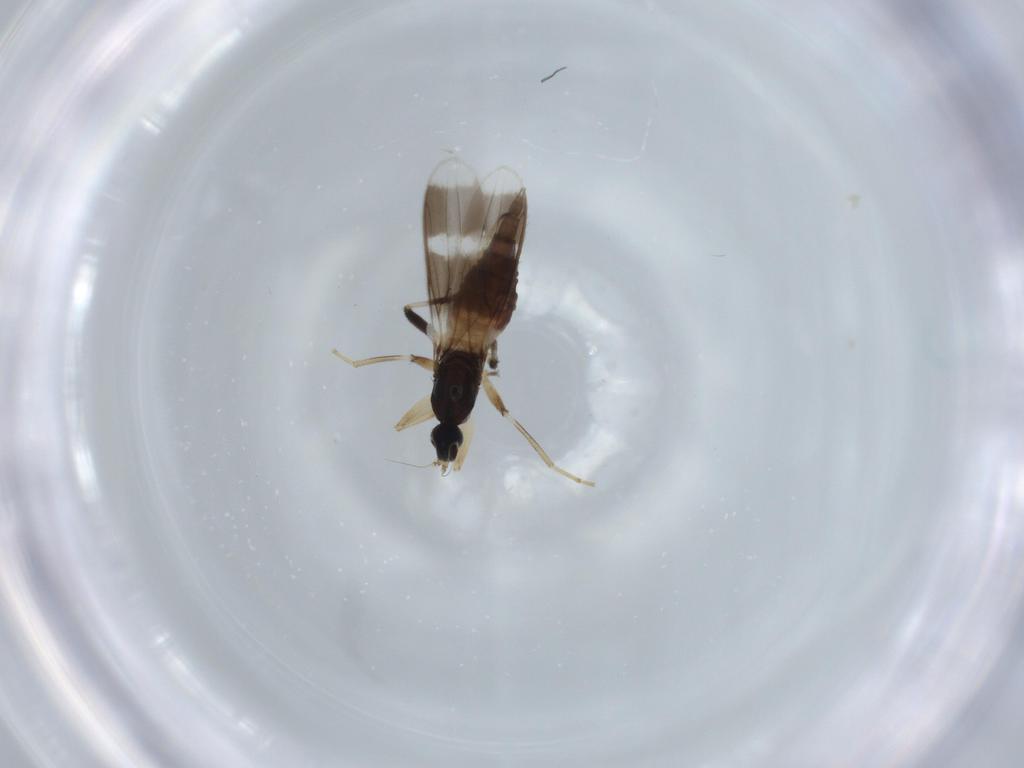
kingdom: Animalia
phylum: Arthropoda
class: Insecta
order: Diptera
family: Hybotidae
